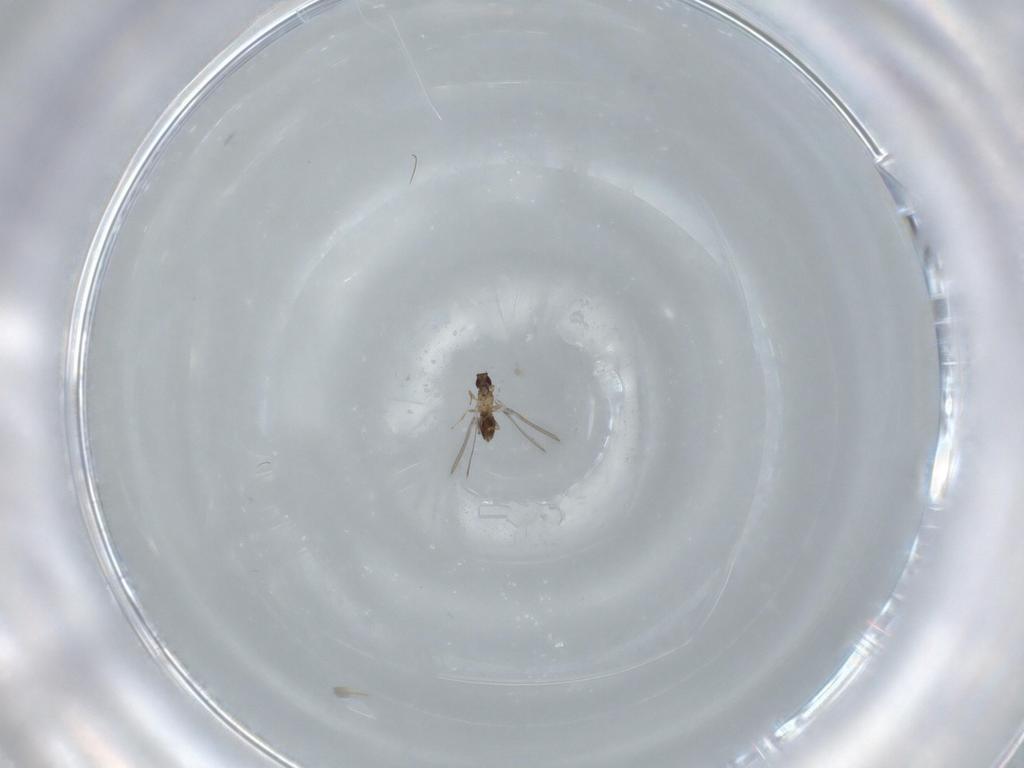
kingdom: Animalia
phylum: Arthropoda
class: Insecta
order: Hymenoptera
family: Mymaridae
